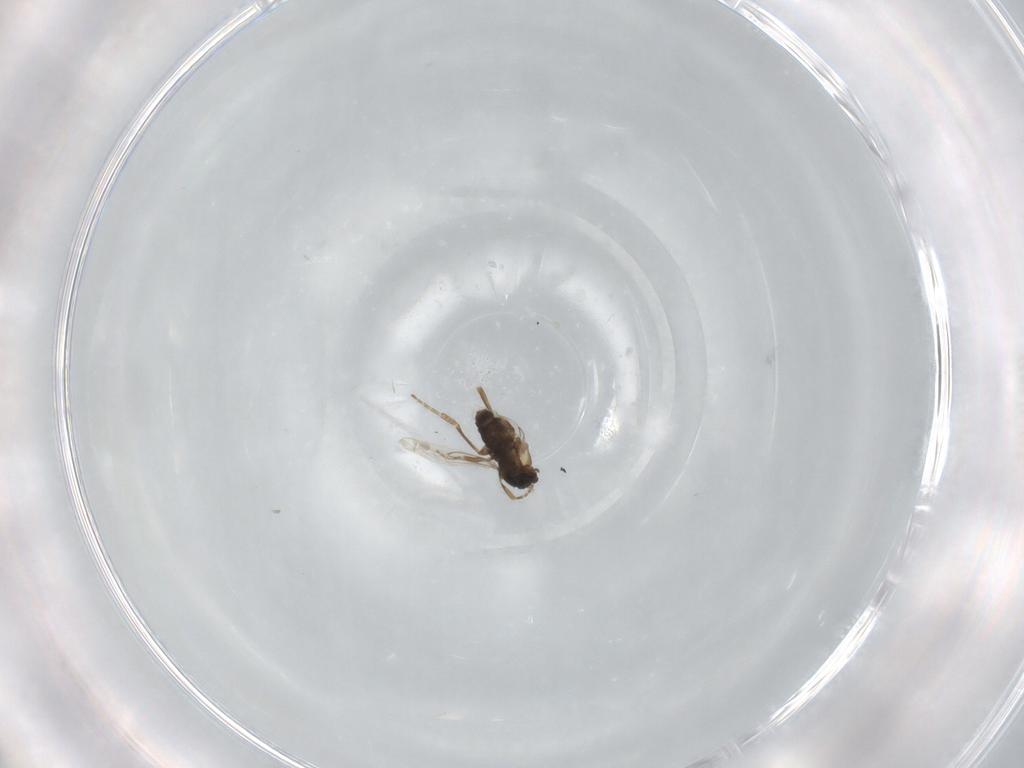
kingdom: Animalia
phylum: Arthropoda
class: Insecta
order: Diptera
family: Phoridae
